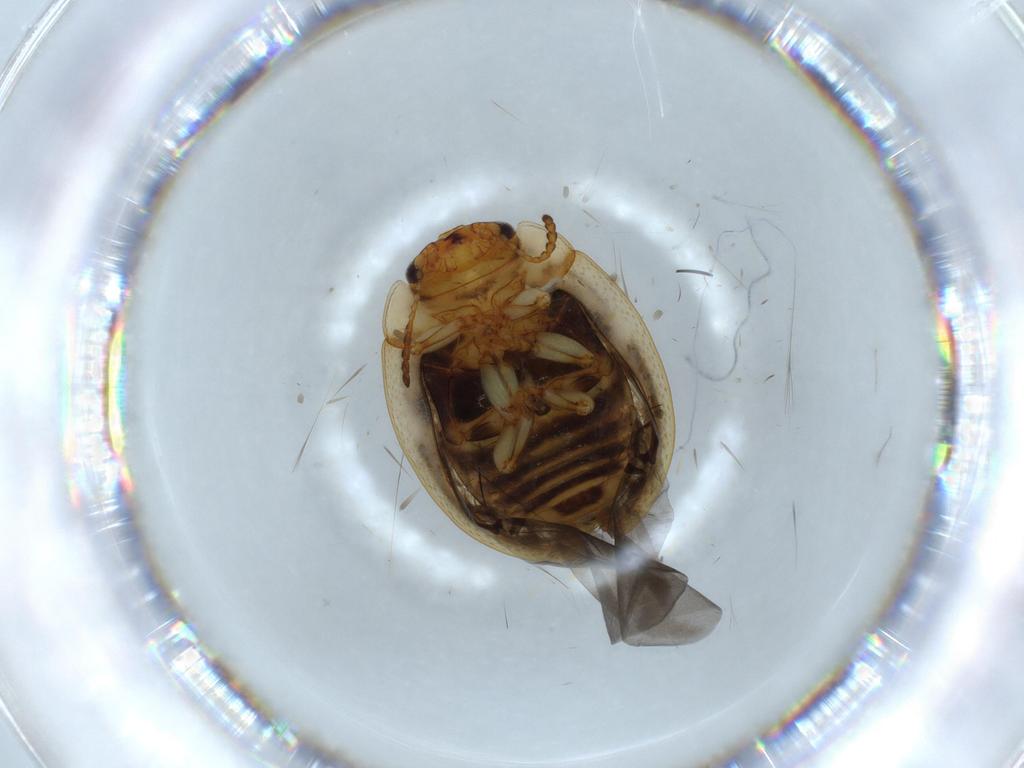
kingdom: Animalia
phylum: Arthropoda
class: Insecta
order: Coleoptera
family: Chrysomelidae
